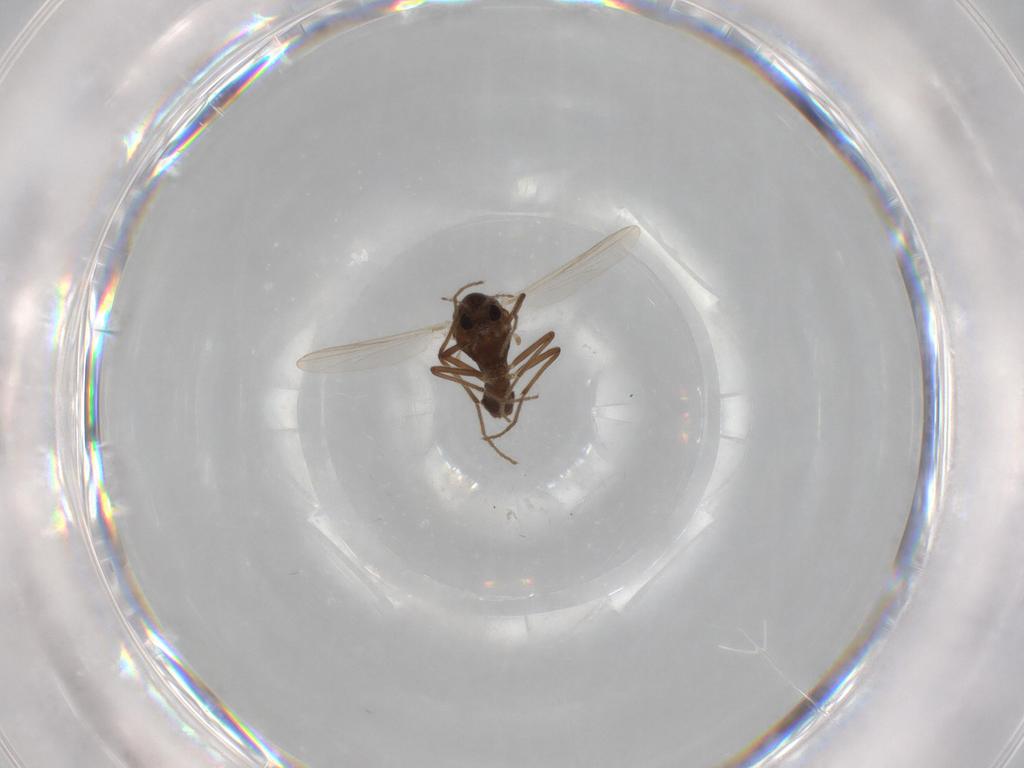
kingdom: Animalia
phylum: Arthropoda
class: Insecta
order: Diptera
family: Chironomidae
